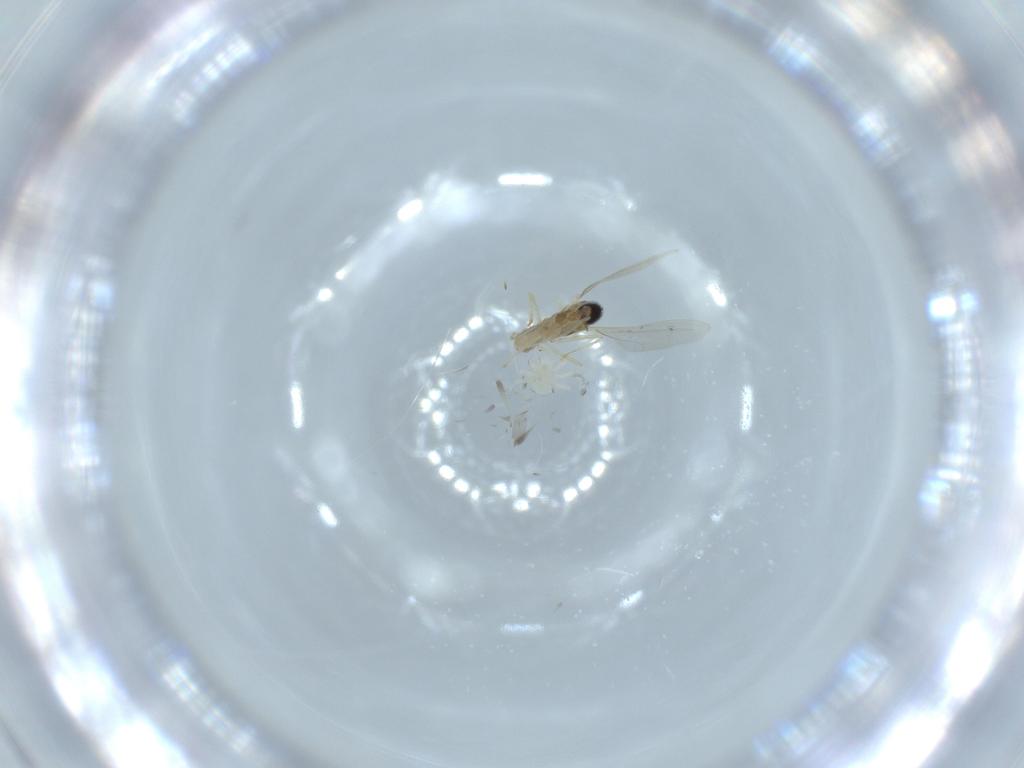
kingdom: Animalia
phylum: Arthropoda
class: Insecta
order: Diptera
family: Cecidomyiidae
